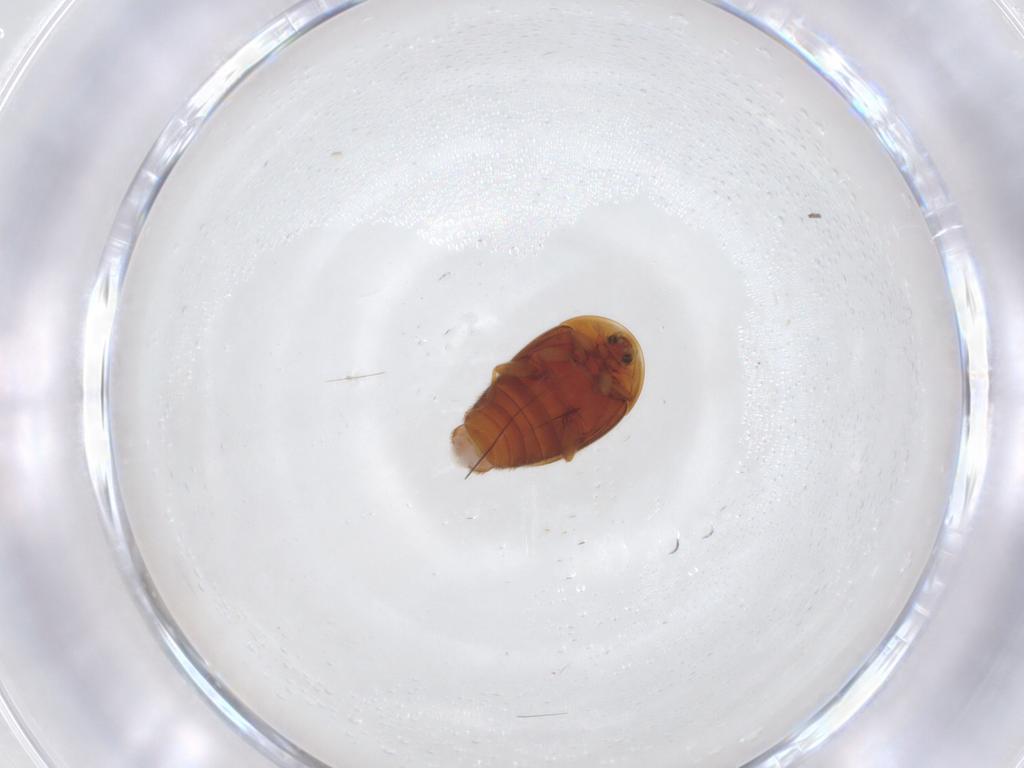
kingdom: Animalia
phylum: Arthropoda
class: Insecta
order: Coleoptera
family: Corylophidae
